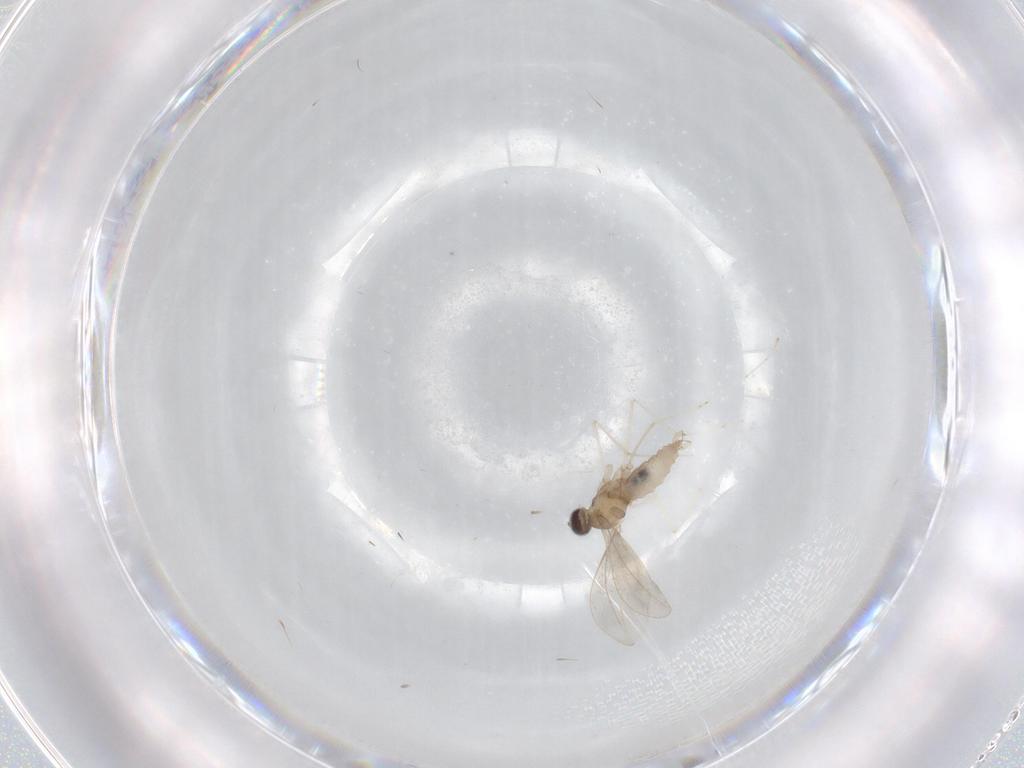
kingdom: Animalia
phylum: Arthropoda
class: Insecta
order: Diptera
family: Cecidomyiidae
